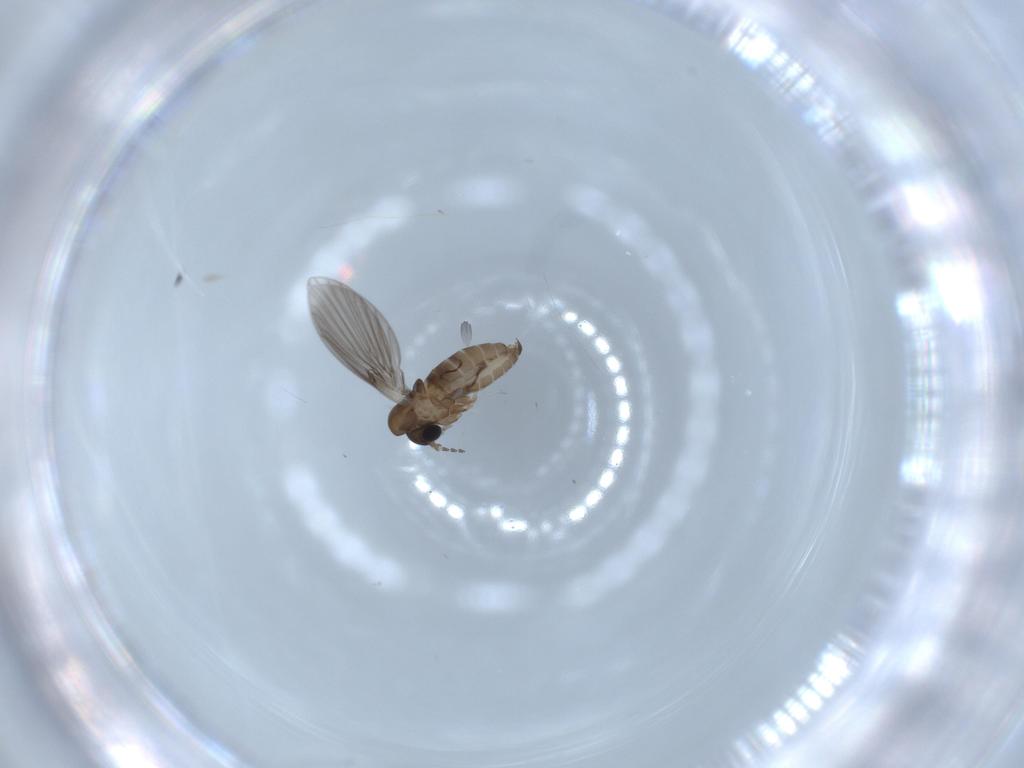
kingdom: Animalia
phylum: Arthropoda
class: Insecta
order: Diptera
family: Psychodidae
